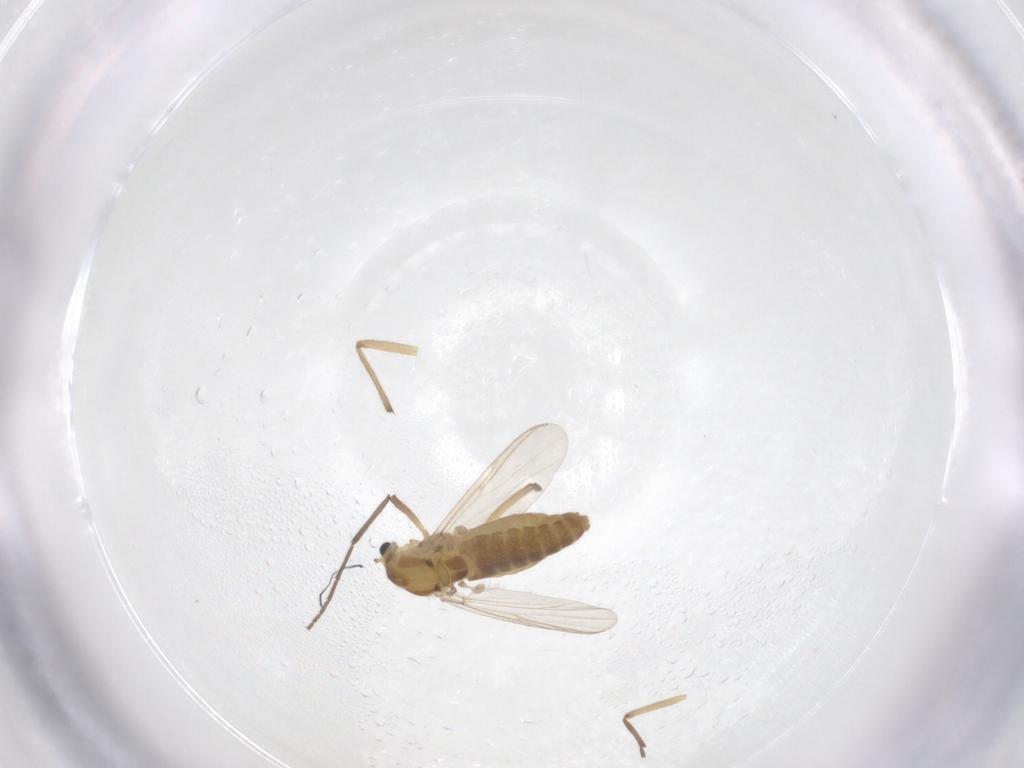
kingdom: Animalia
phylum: Arthropoda
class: Insecta
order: Diptera
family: Chironomidae
